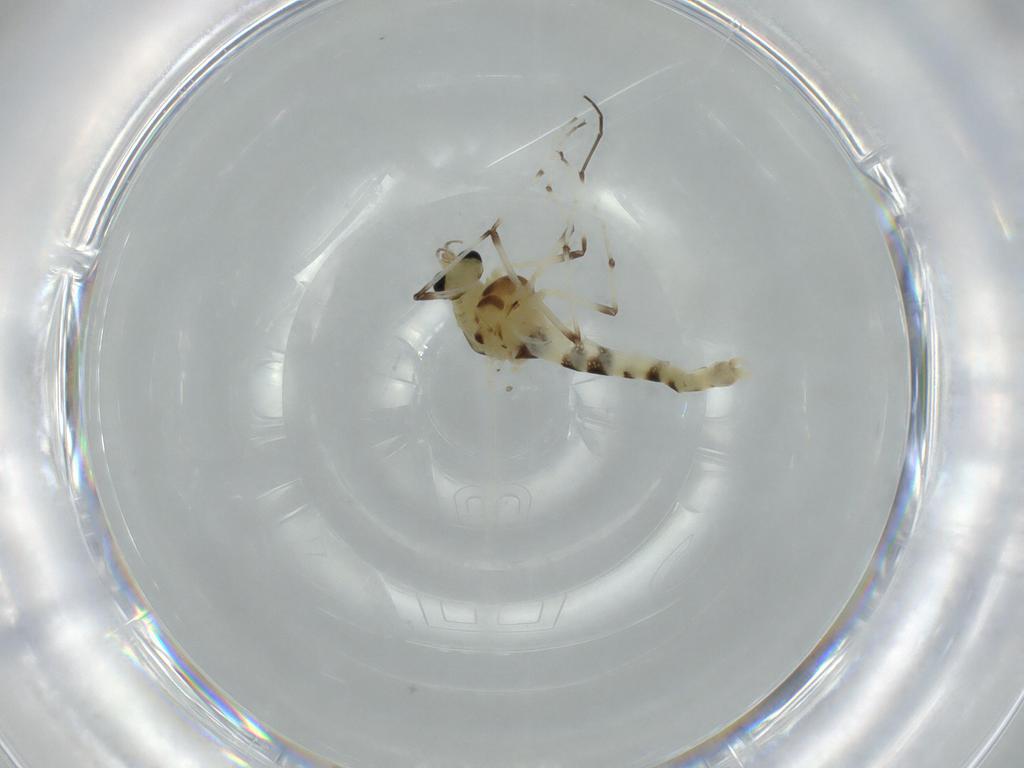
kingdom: Animalia
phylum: Arthropoda
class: Insecta
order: Diptera
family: Chironomidae
